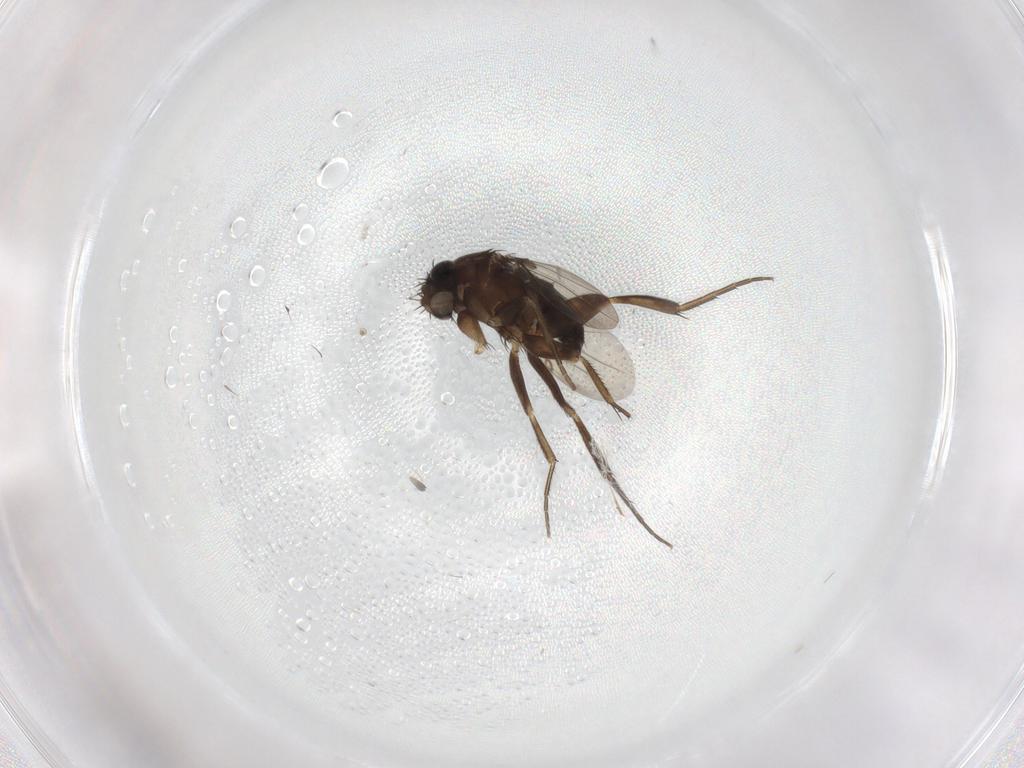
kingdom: Animalia
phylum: Arthropoda
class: Insecta
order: Diptera
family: Phoridae
